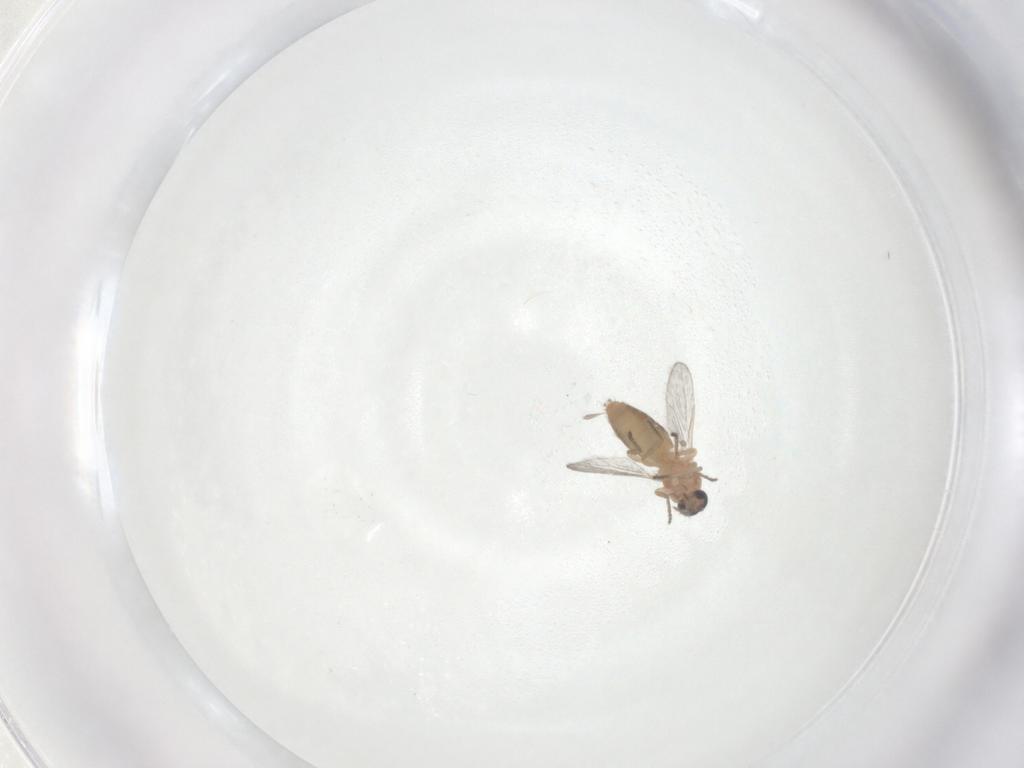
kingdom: Animalia
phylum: Arthropoda
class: Insecta
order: Diptera
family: Ceratopogonidae
